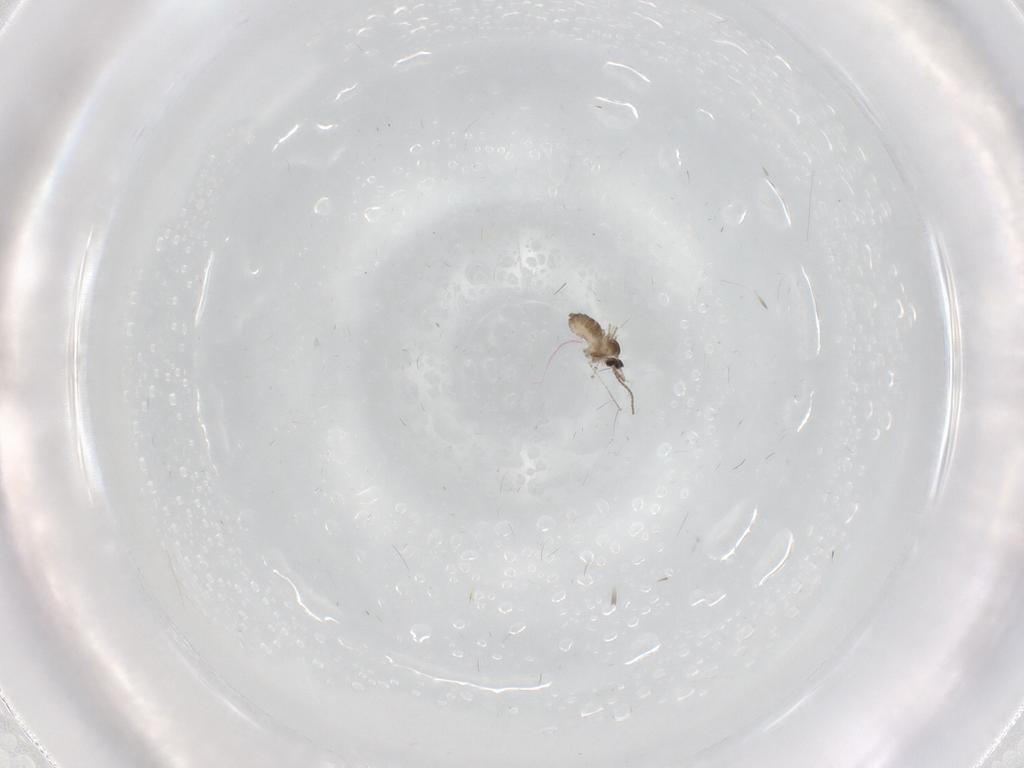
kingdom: Animalia
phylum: Arthropoda
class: Insecta
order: Diptera
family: Cecidomyiidae
